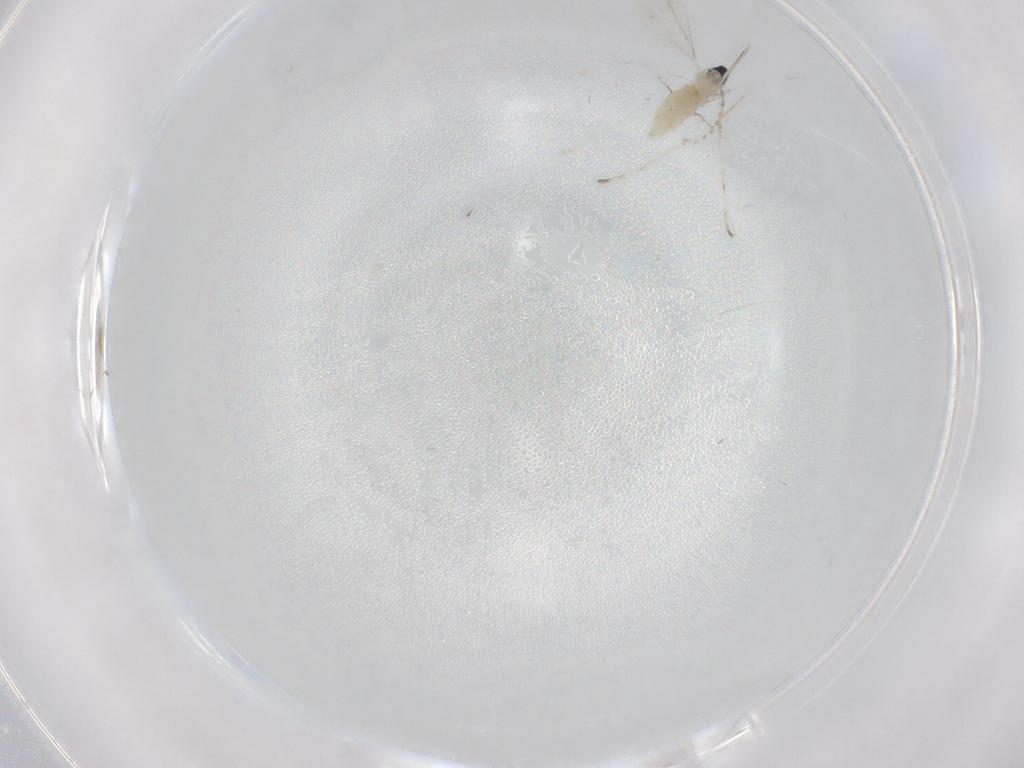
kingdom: Animalia
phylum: Arthropoda
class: Insecta
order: Diptera
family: Cecidomyiidae
